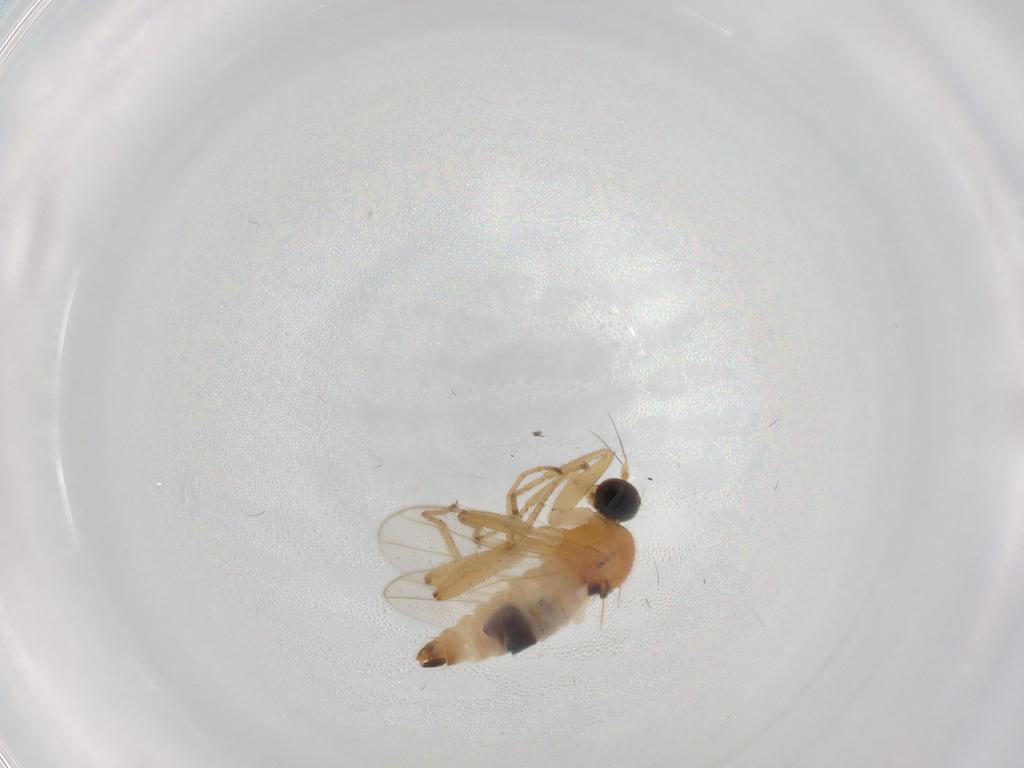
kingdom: Animalia
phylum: Arthropoda
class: Insecta
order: Diptera
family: Hybotidae
